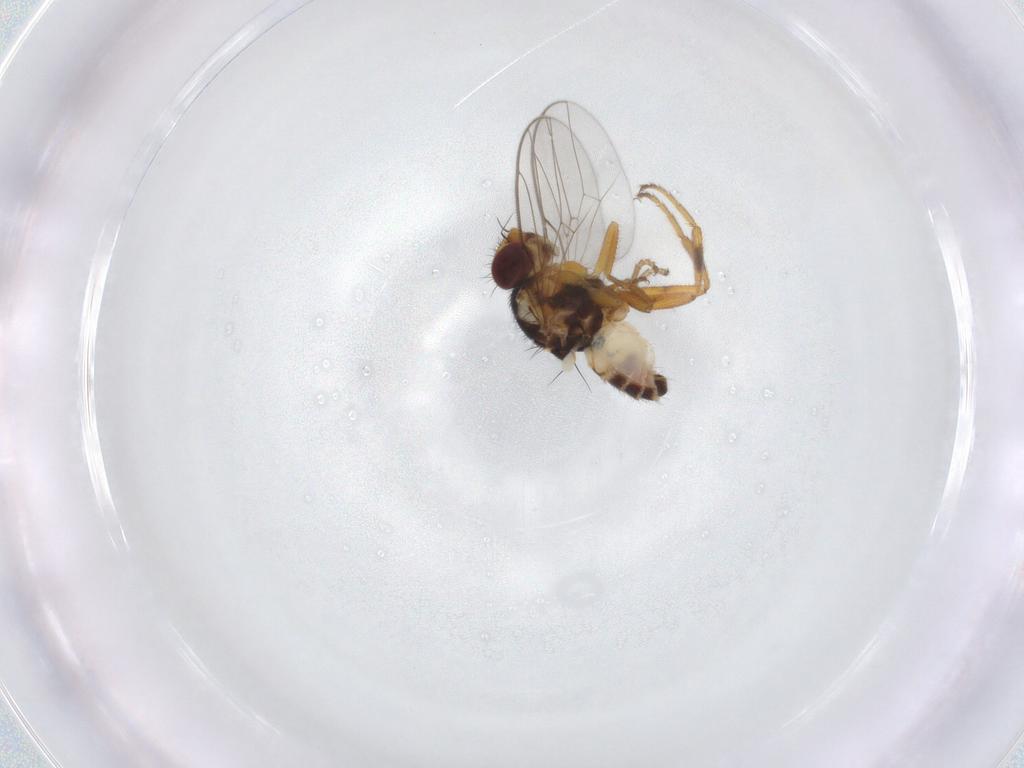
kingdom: Animalia
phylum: Arthropoda
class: Insecta
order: Diptera
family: Chloropidae
